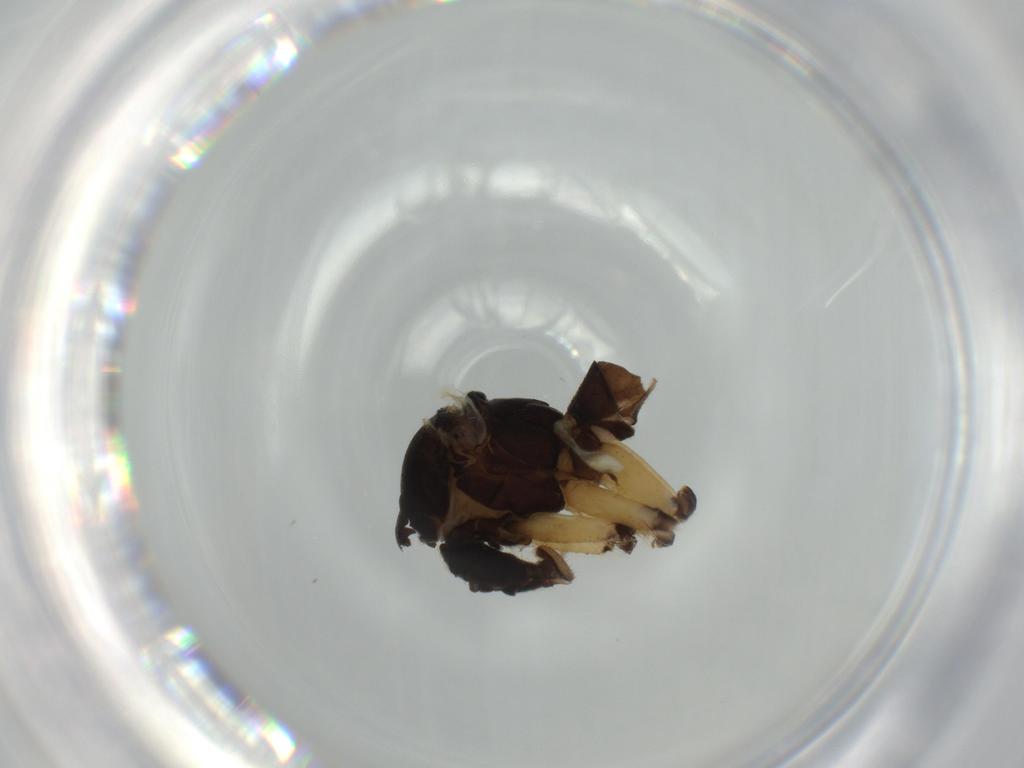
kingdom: Animalia
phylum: Arthropoda
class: Insecta
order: Diptera
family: Mycetophilidae
